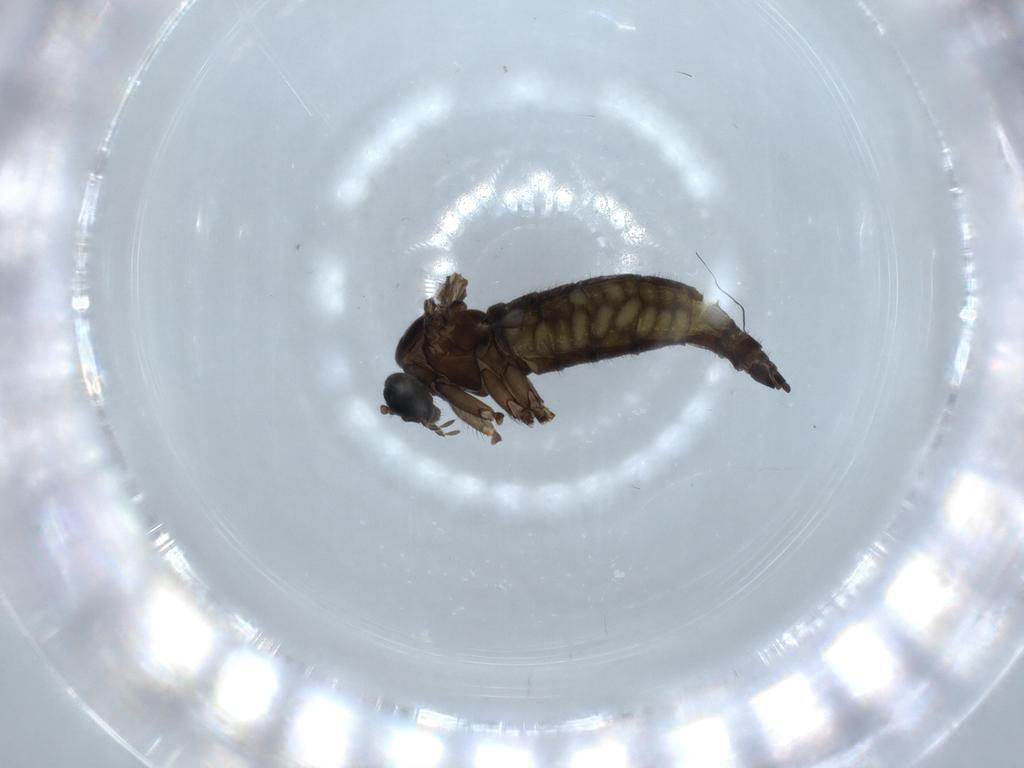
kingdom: Animalia
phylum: Arthropoda
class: Insecta
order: Diptera
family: Sciaridae
